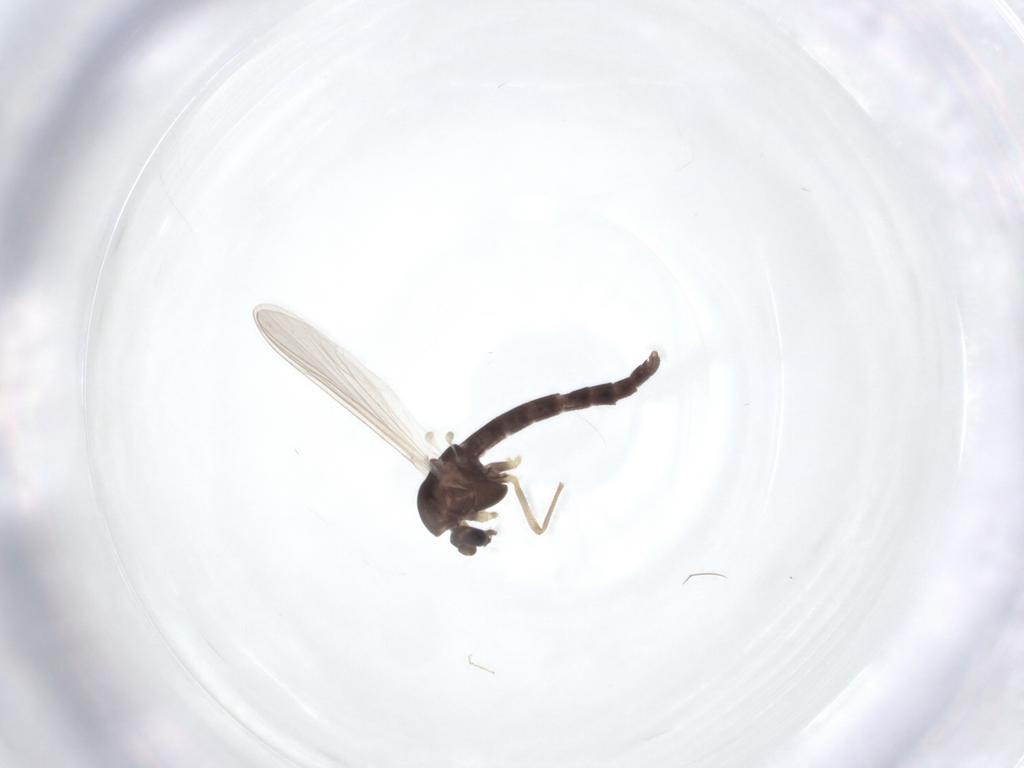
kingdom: Animalia
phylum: Arthropoda
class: Insecta
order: Diptera
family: Chironomidae
